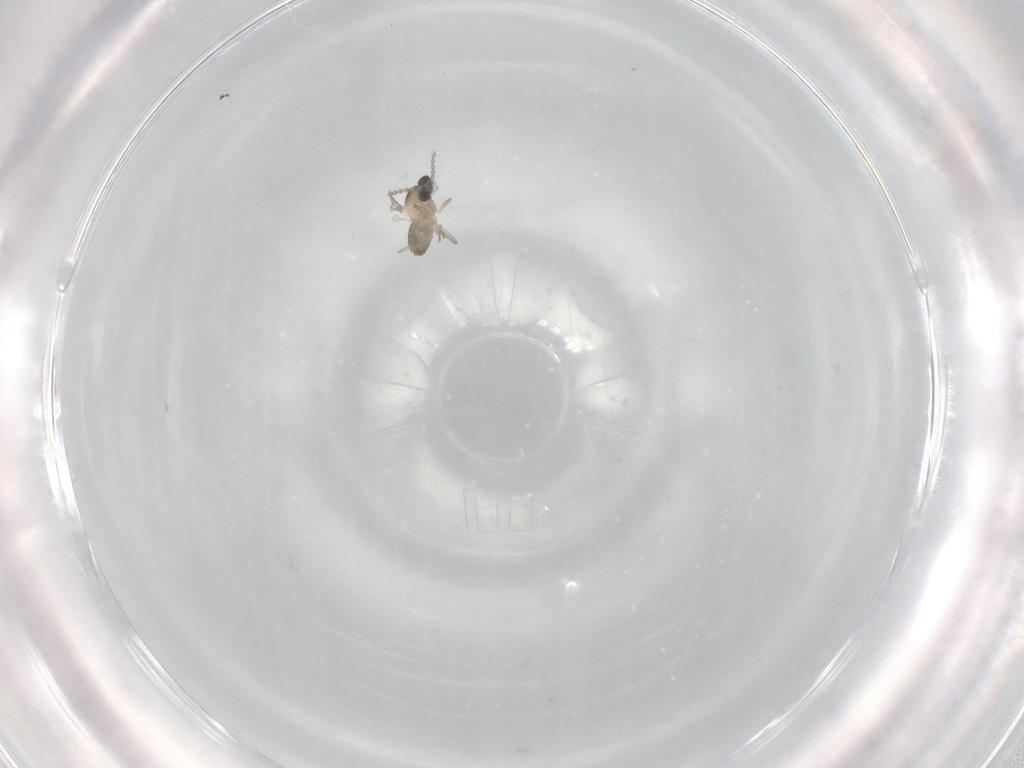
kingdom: Animalia
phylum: Arthropoda
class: Insecta
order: Diptera
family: Cecidomyiidae
